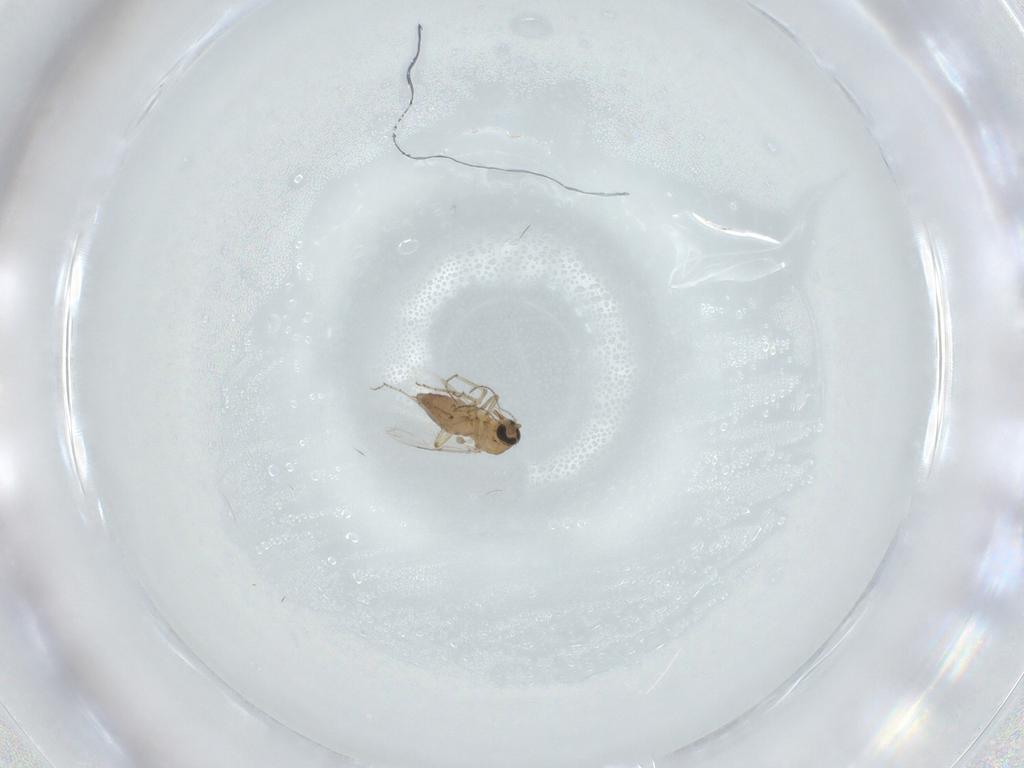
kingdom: Animalia
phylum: Arthropoda
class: Insecta
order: Diptera
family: Ceratopogonidae
